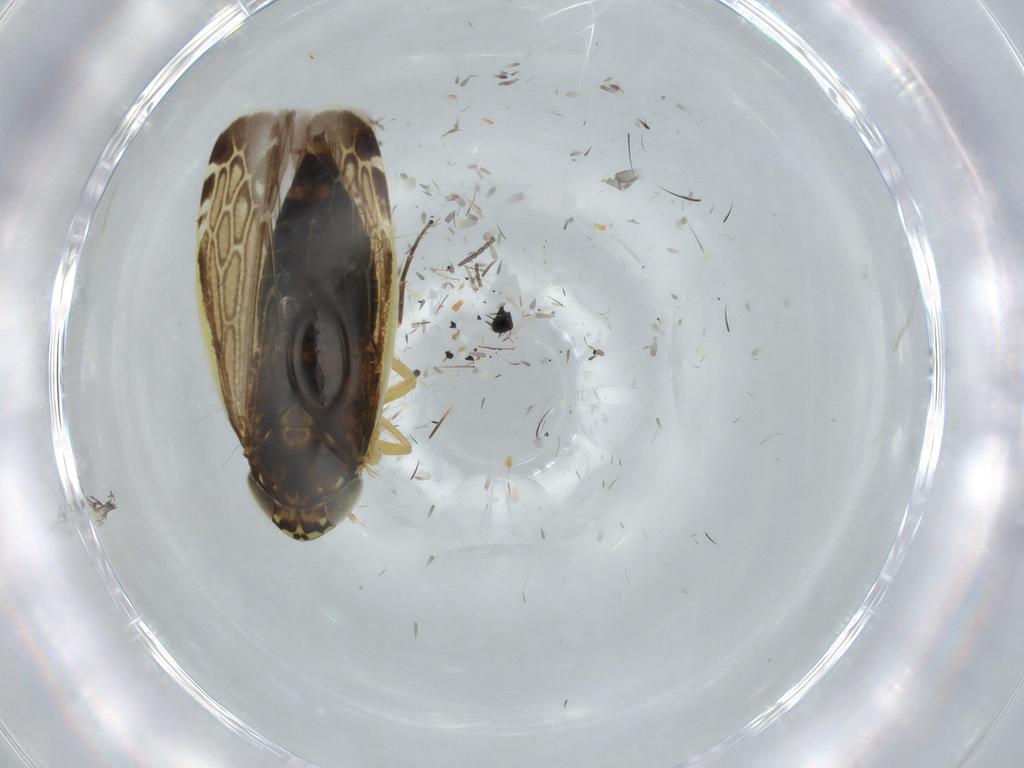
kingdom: Animalia
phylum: Arthropoda
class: Insecta
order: Hemiptera
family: Cicadellidae
